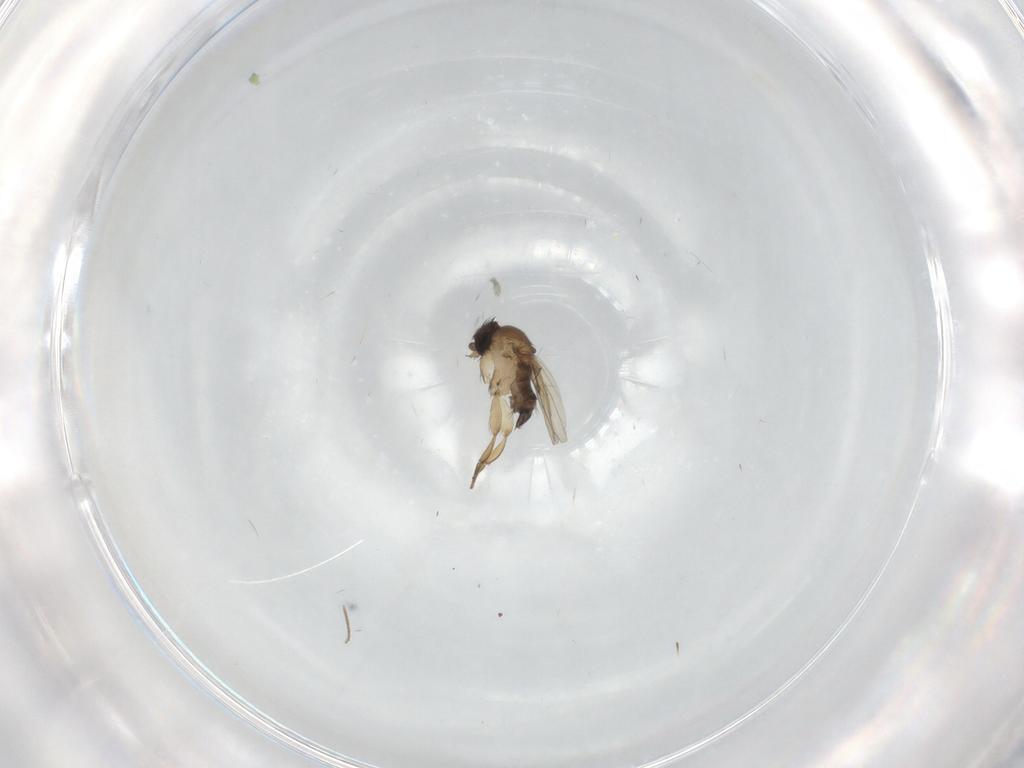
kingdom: Animalia
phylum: Arthropoda
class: Insecta
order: Diptera
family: Phoridae
